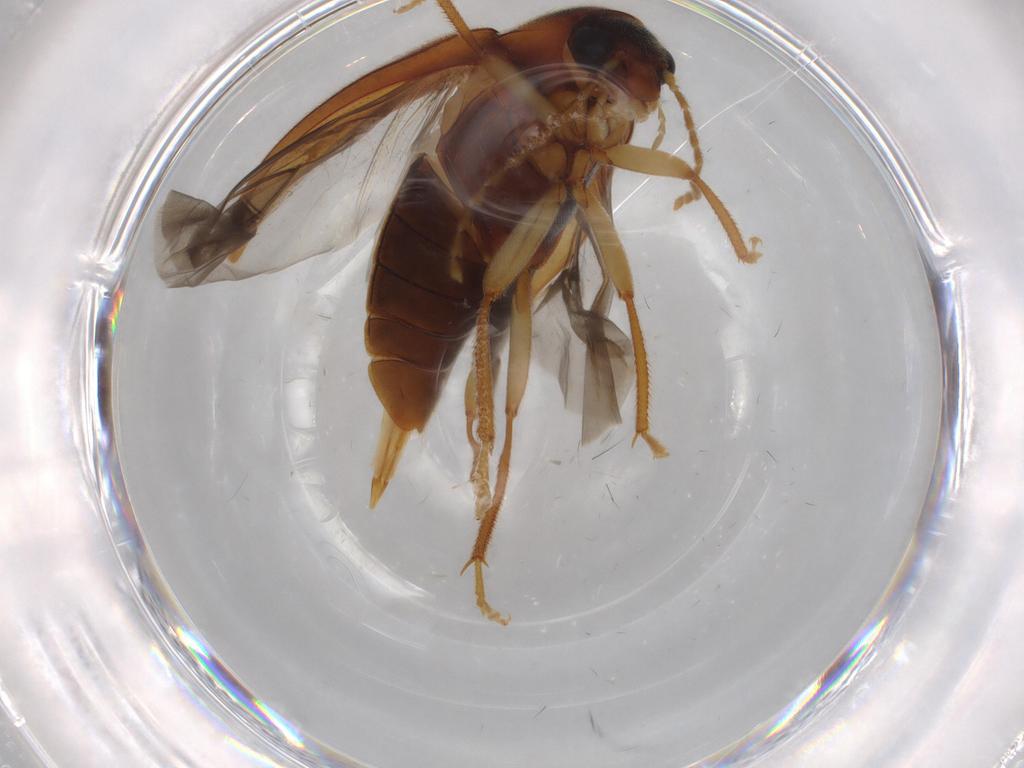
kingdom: Animalia
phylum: Arthropoda
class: Insecta
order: Coleoptera
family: Ptilodactylidae
